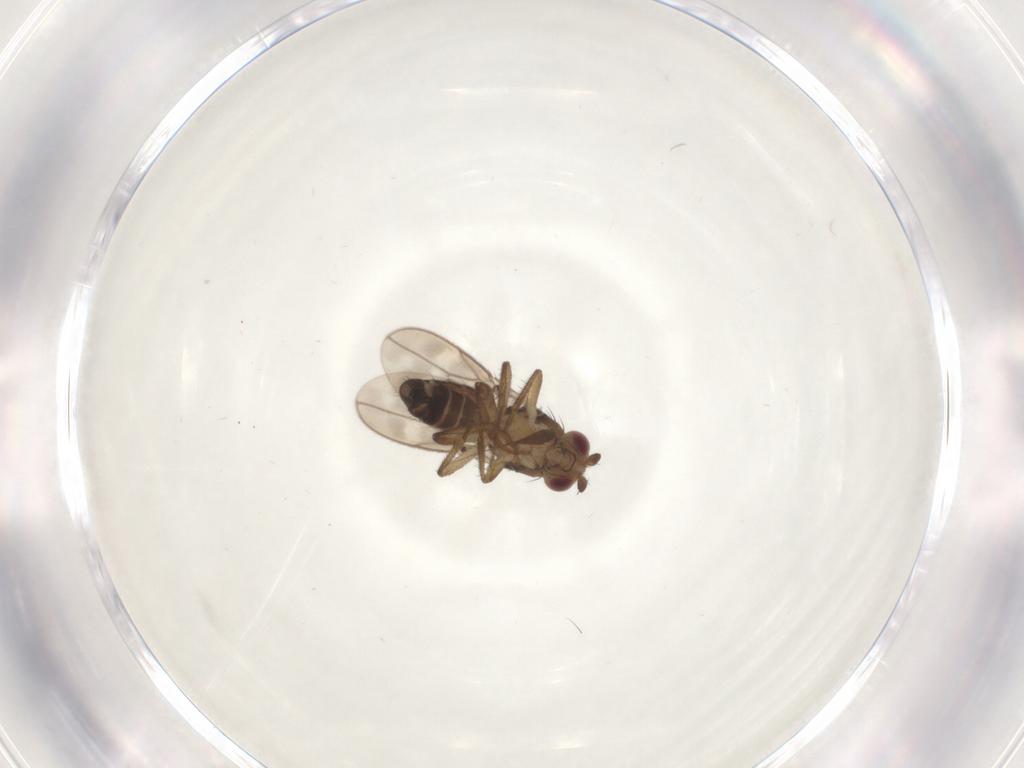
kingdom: Animalia
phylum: Arthropoda
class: Insecta
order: Diptera
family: Sphaeroceridae
